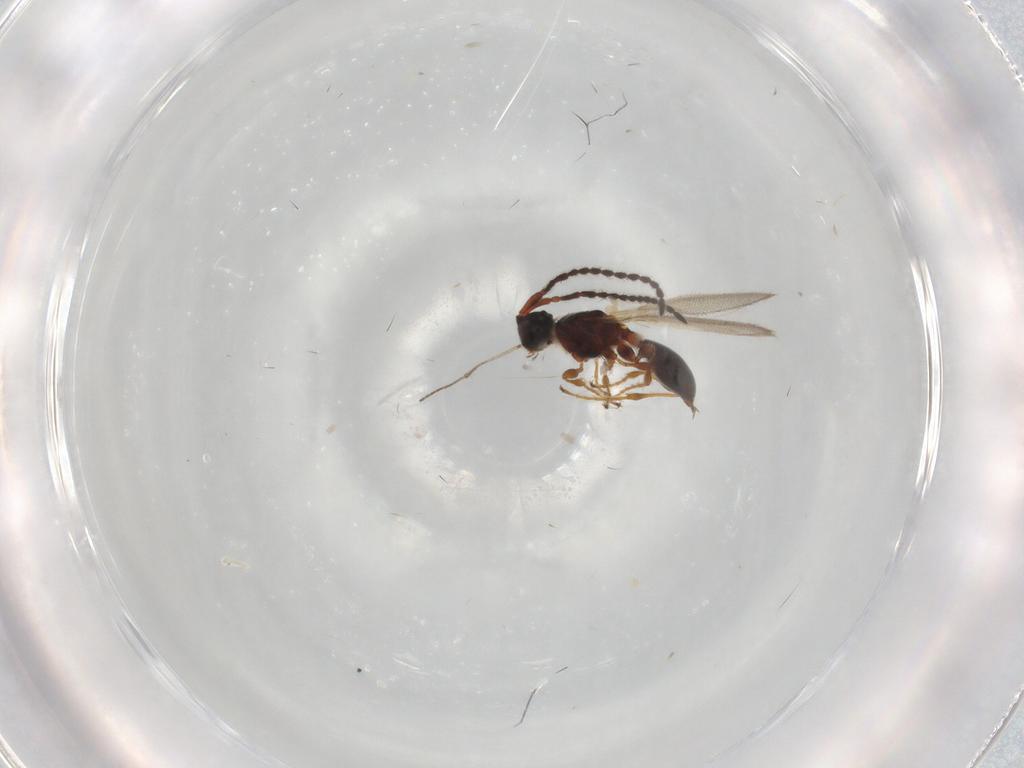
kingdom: Animalia
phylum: Arthropoda
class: Insecta
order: Hymenoptera
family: Diapriidae
